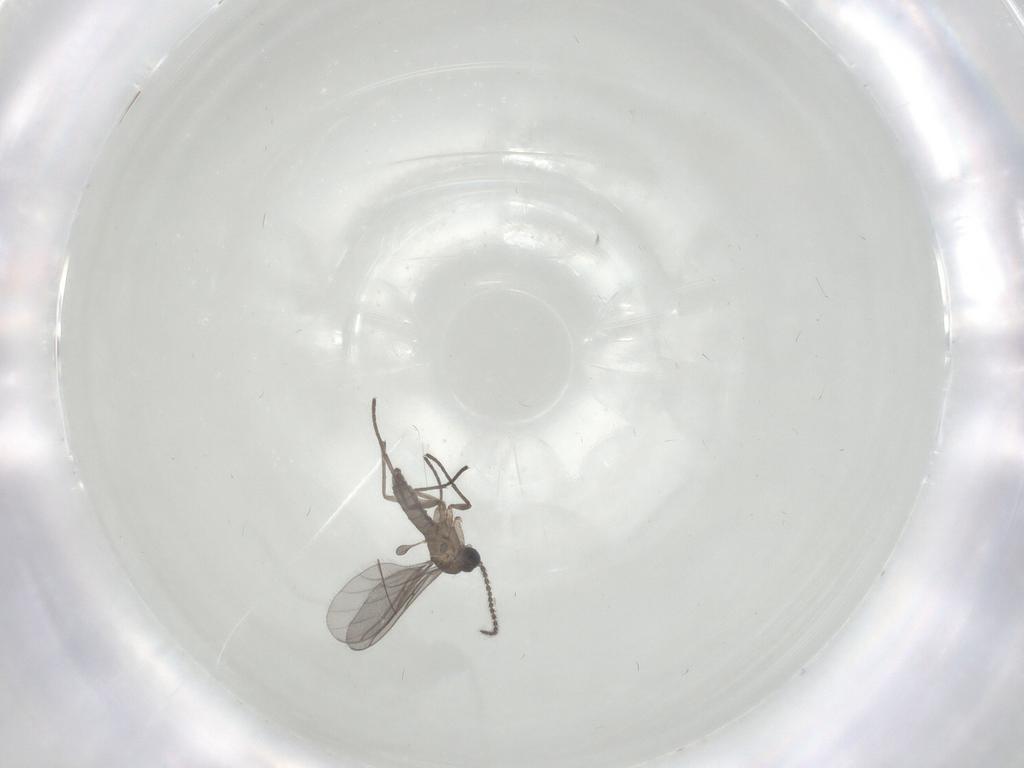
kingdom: Animalia
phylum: Arthropoda
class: Insecta
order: Diptera
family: Sciaridae
